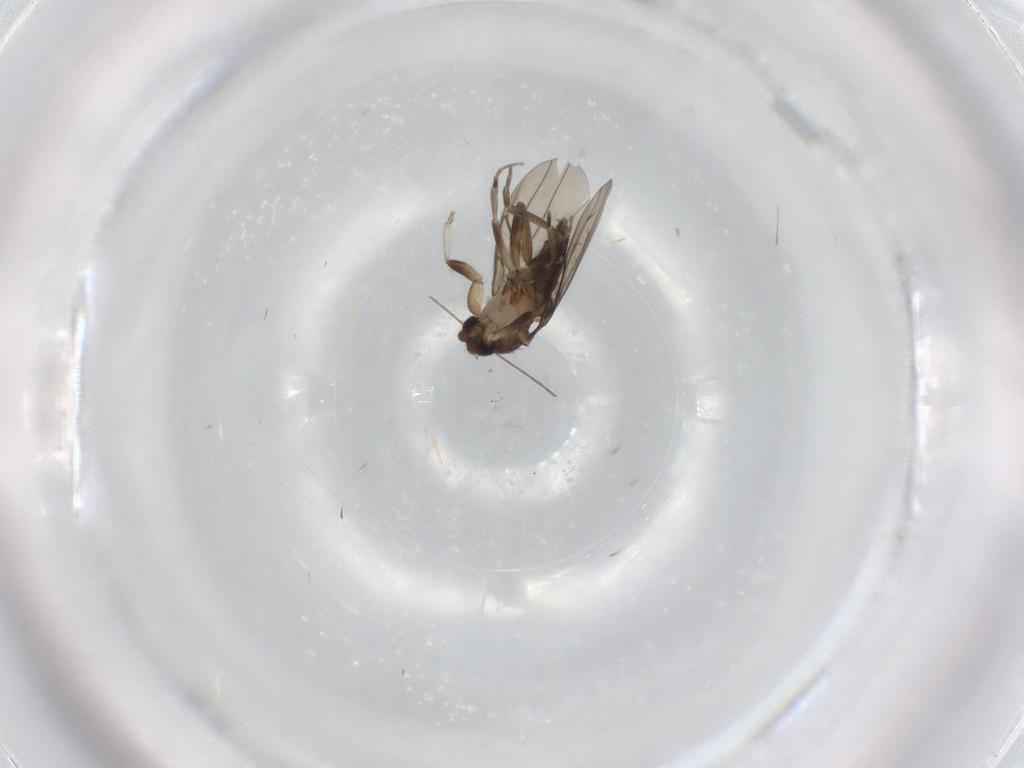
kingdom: Animalia
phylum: Arthropoda
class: Insecta
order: Diptera
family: Cecidomyiidae
